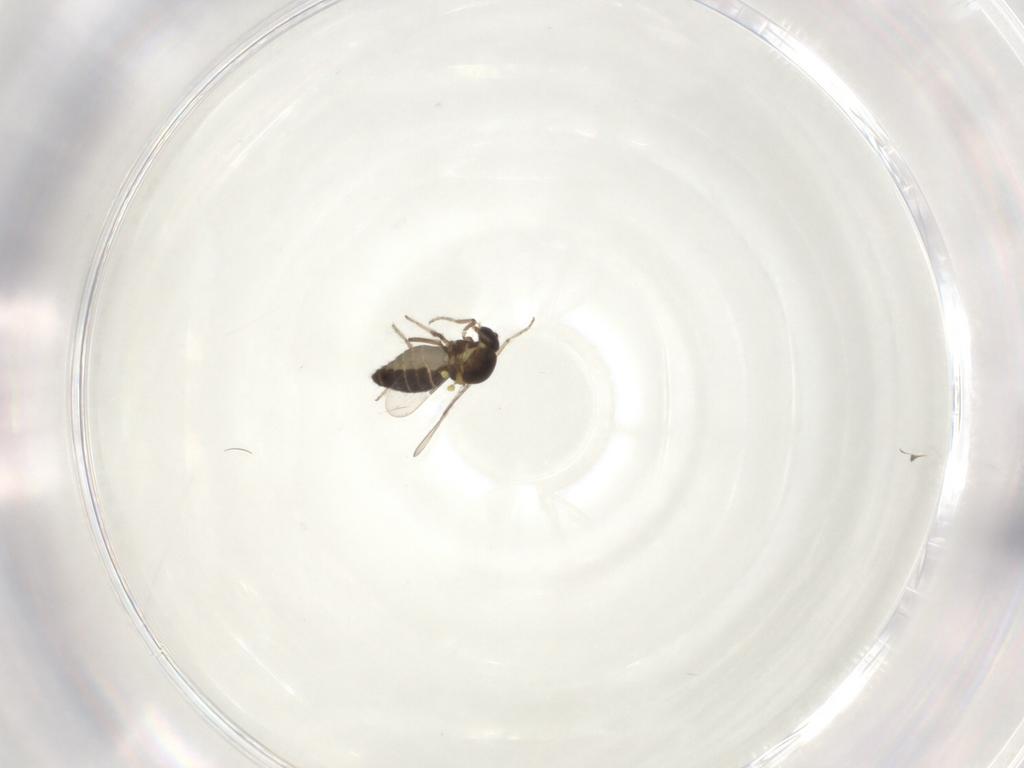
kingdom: Animalia
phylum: Arthropoda
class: Insecta
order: Diptera
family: Ceratopogonidae
